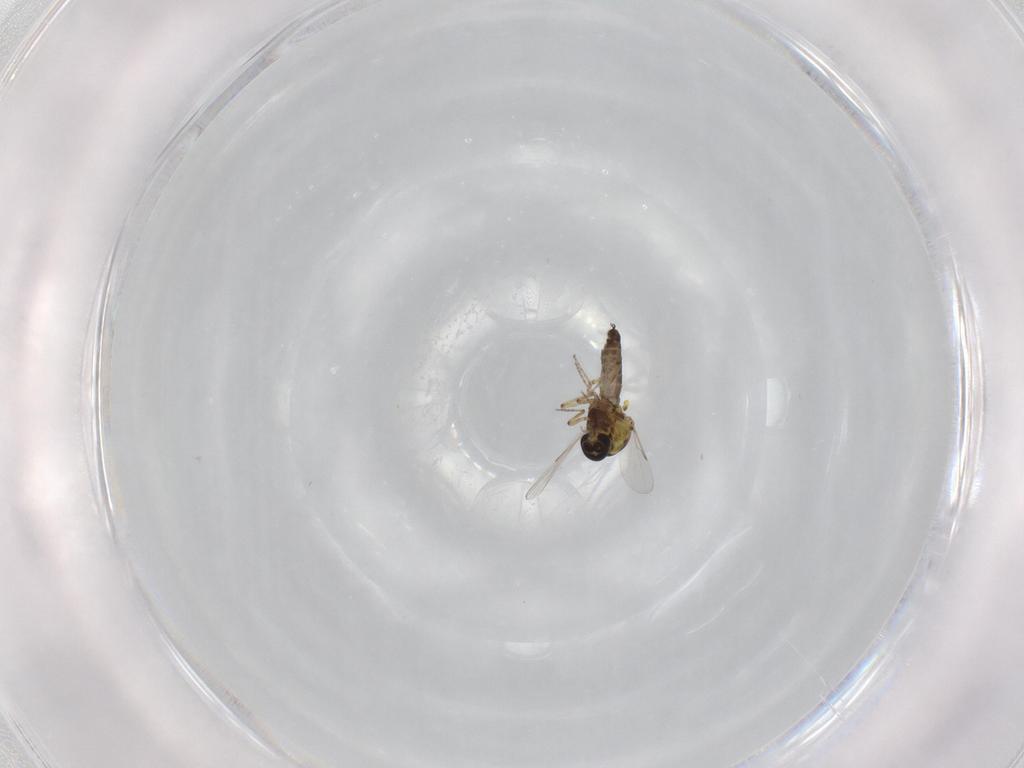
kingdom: Animalia
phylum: Arthropoda
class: Insecta
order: Diptera
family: Ceratopogonidae
